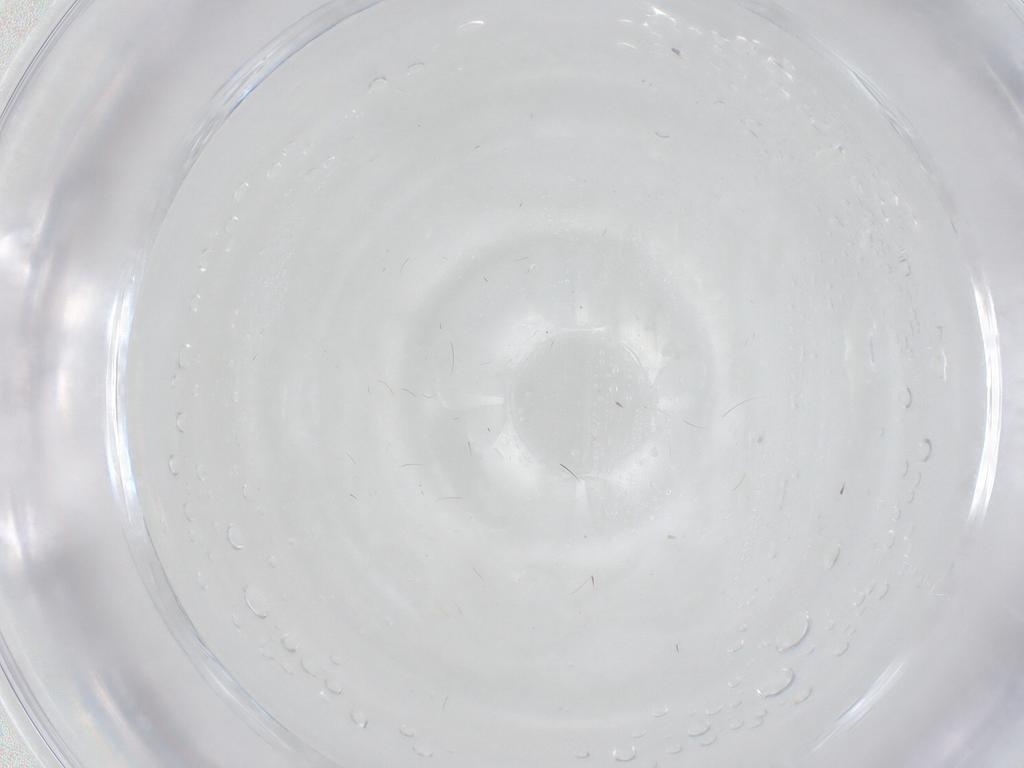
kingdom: Animalia
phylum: Arthropoda
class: Insecta
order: Diptera
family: Psychodidae
